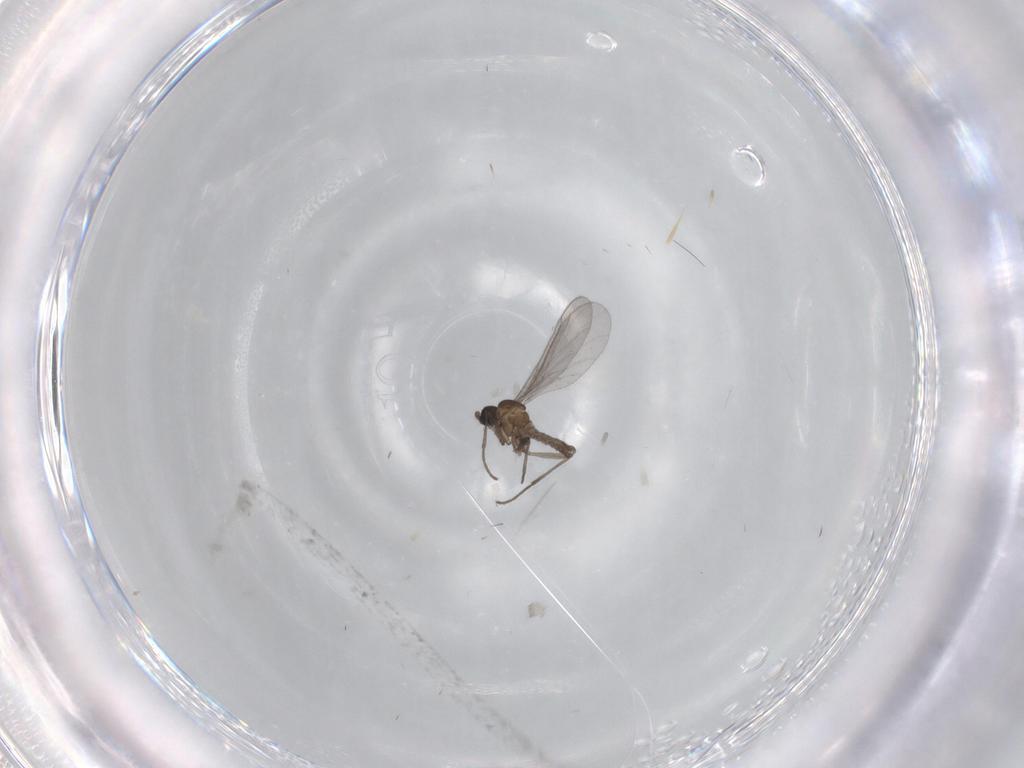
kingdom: Animalia
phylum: Arthropoda
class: Insecta
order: Diptera
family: Sciaridae
